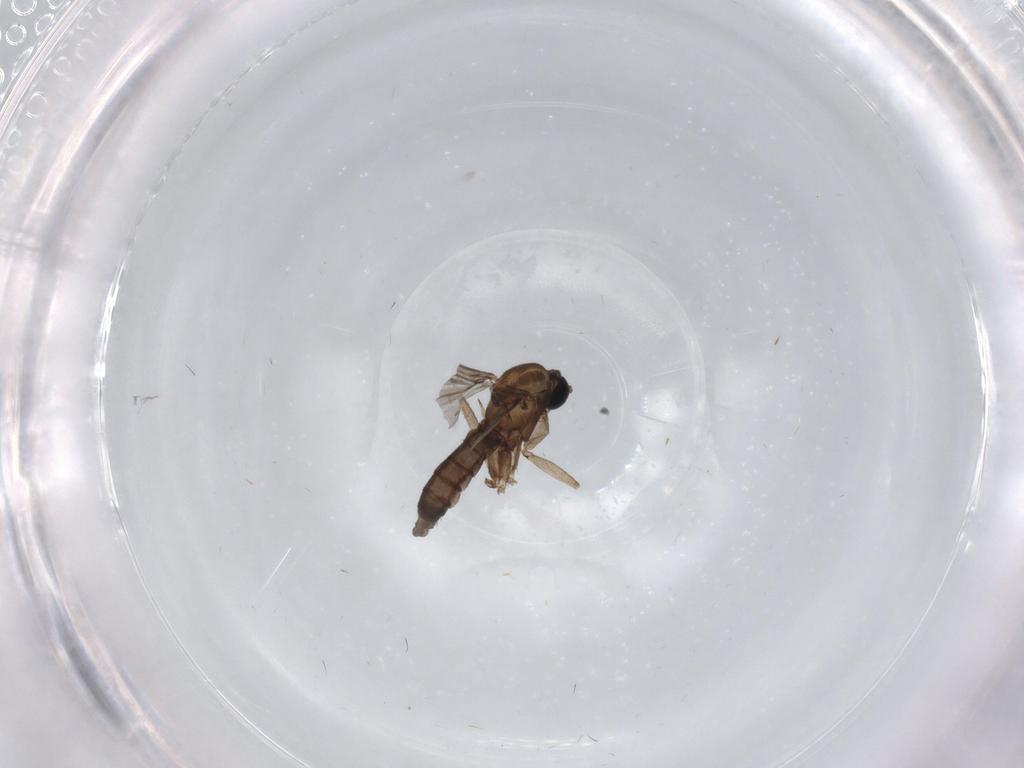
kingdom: Animalia
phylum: Arthropoda
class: Insecta
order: Diptera
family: Sciaridae
